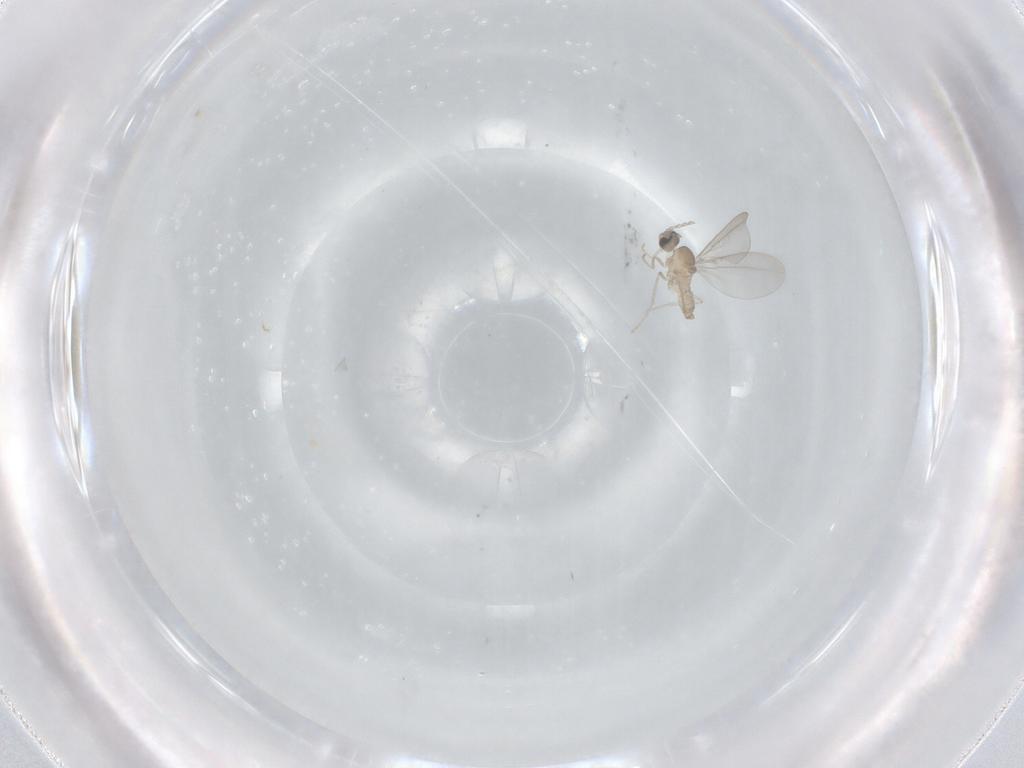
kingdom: Animalia
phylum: Arthropoda
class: Insecta
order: Diptera
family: Cecidomyiidae
